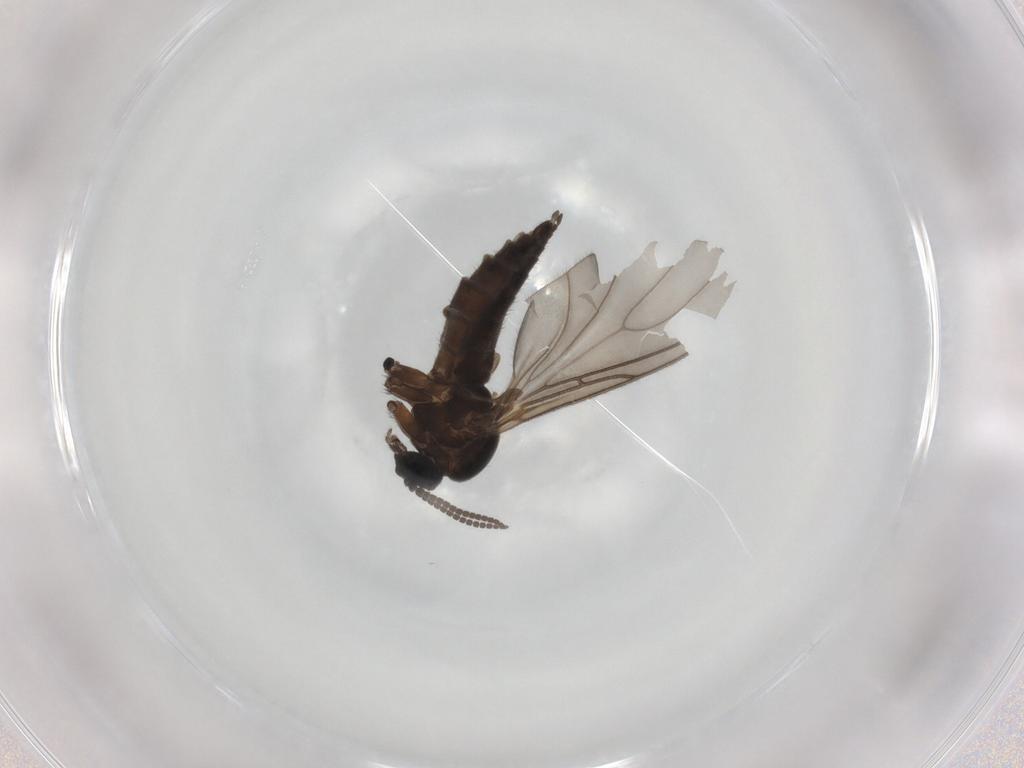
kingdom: Animalia
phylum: Arthropoda
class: Insecta
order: Diptera
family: Sciaridae
